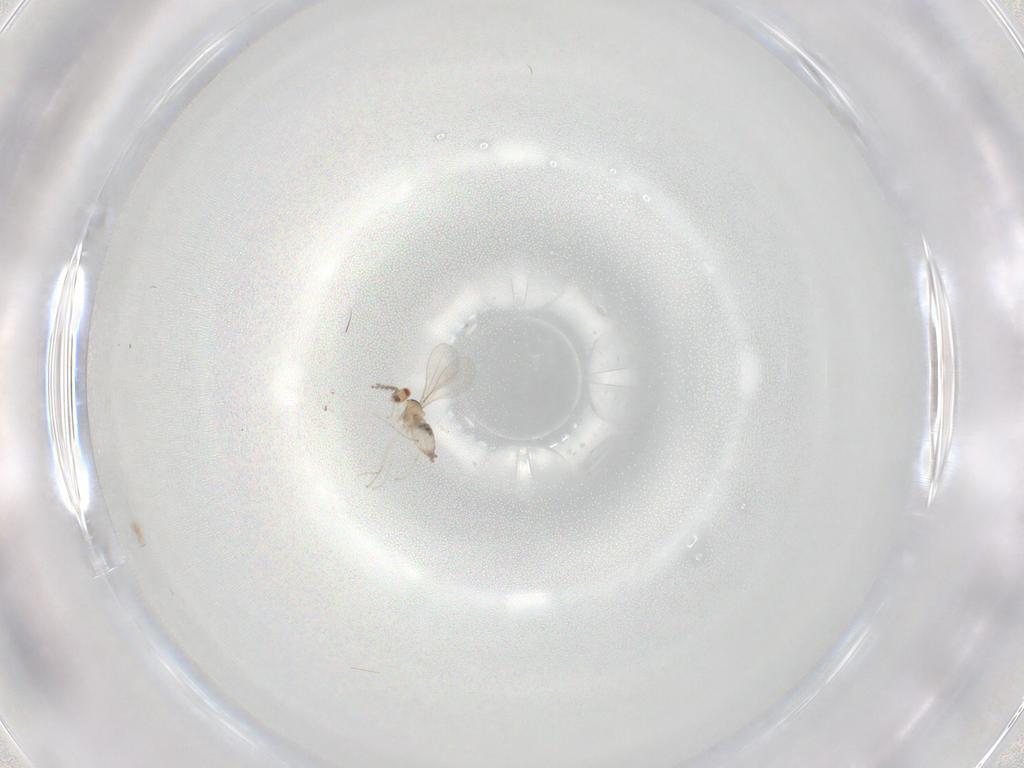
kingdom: Animalia
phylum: Arthropoda
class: Insecta
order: Diptera
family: Cecidomyiidae
